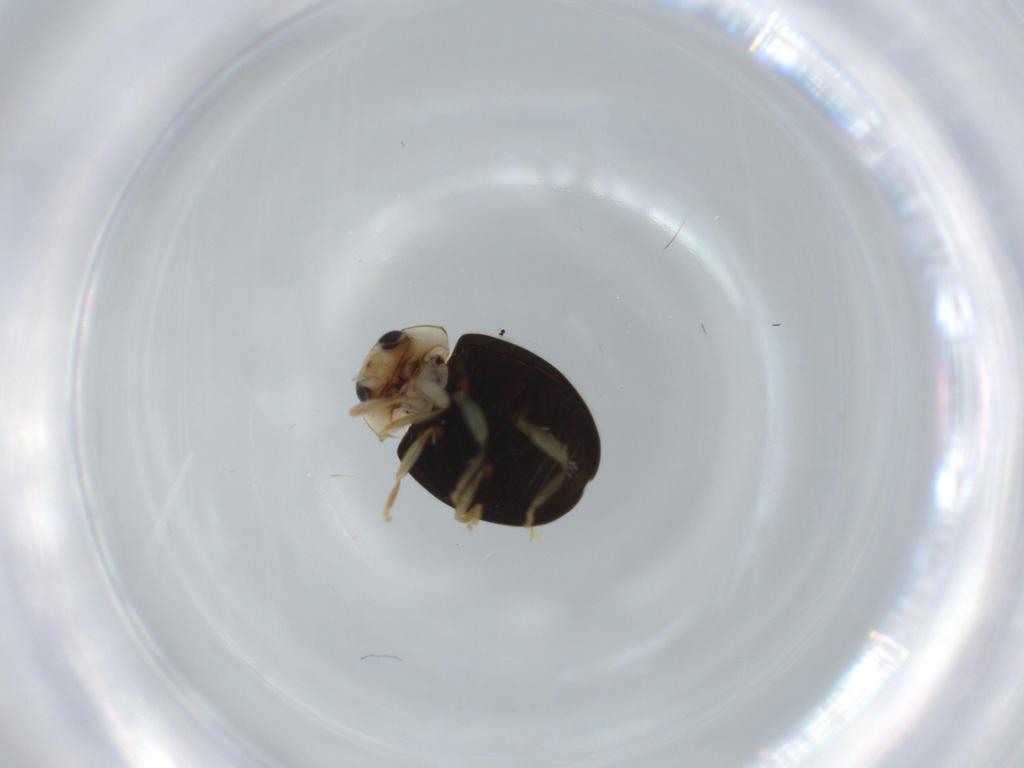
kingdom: Animalia
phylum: Arthropoda
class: Insecta
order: Coleoptera
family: Coccinellidae
